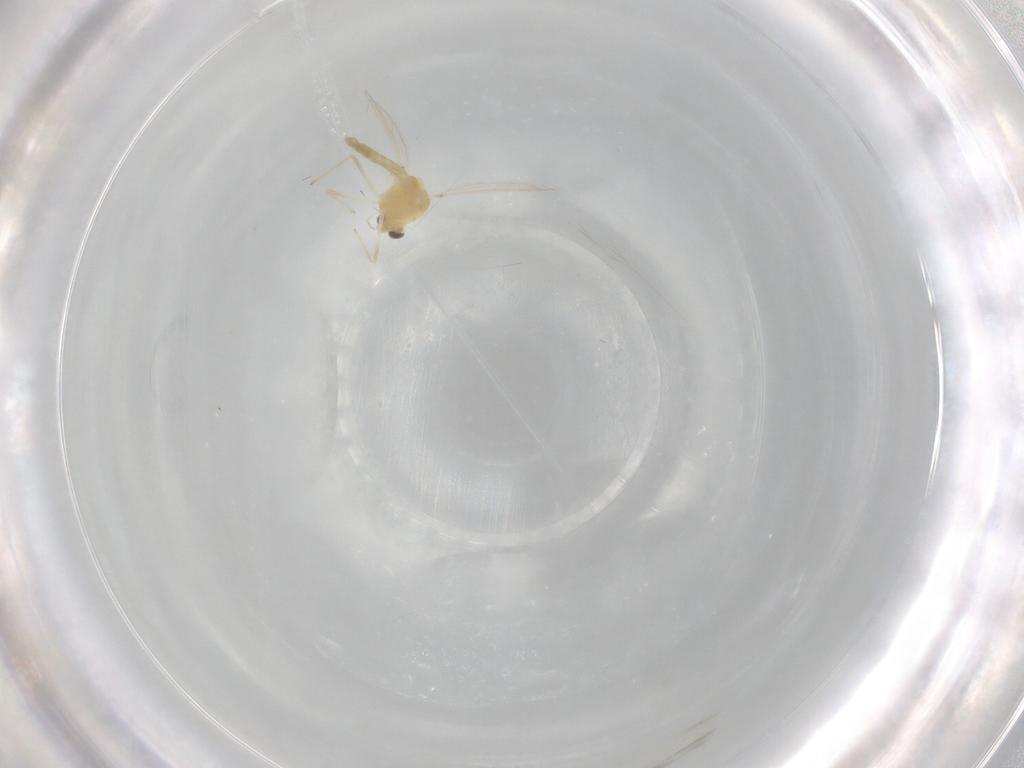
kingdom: Animalia
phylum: Arthropoda
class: Insecta
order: Diptera
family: Chironomidae
